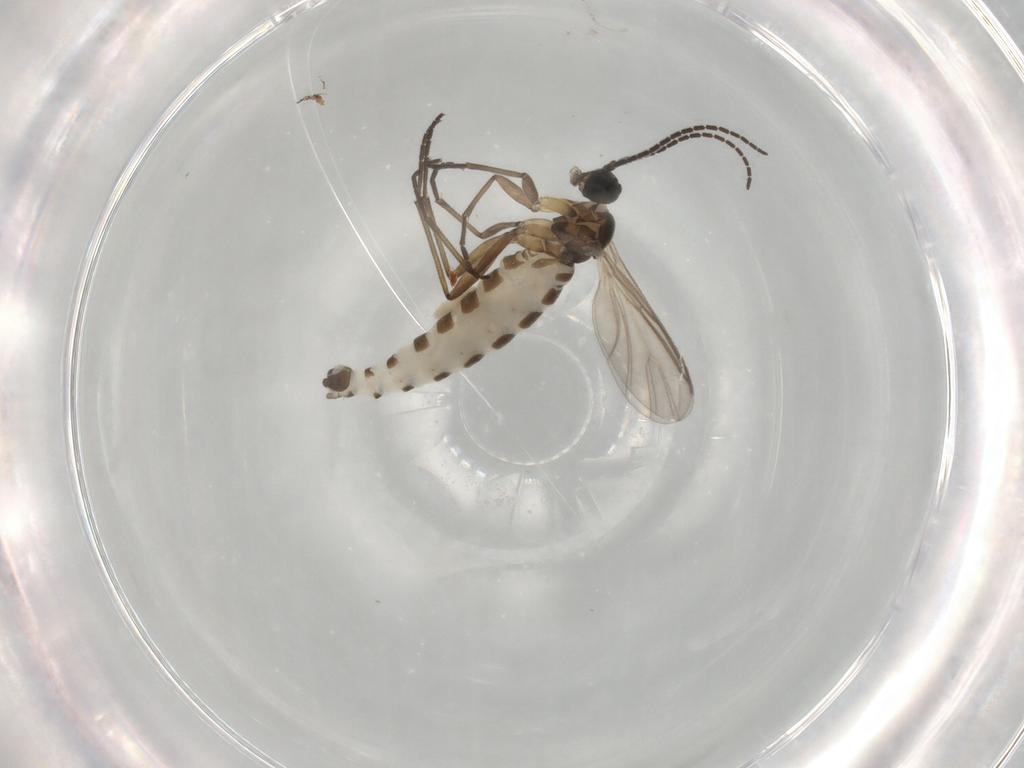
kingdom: Animalia
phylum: Arthropoda
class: Insecta
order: Diptera
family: Sciaridae
